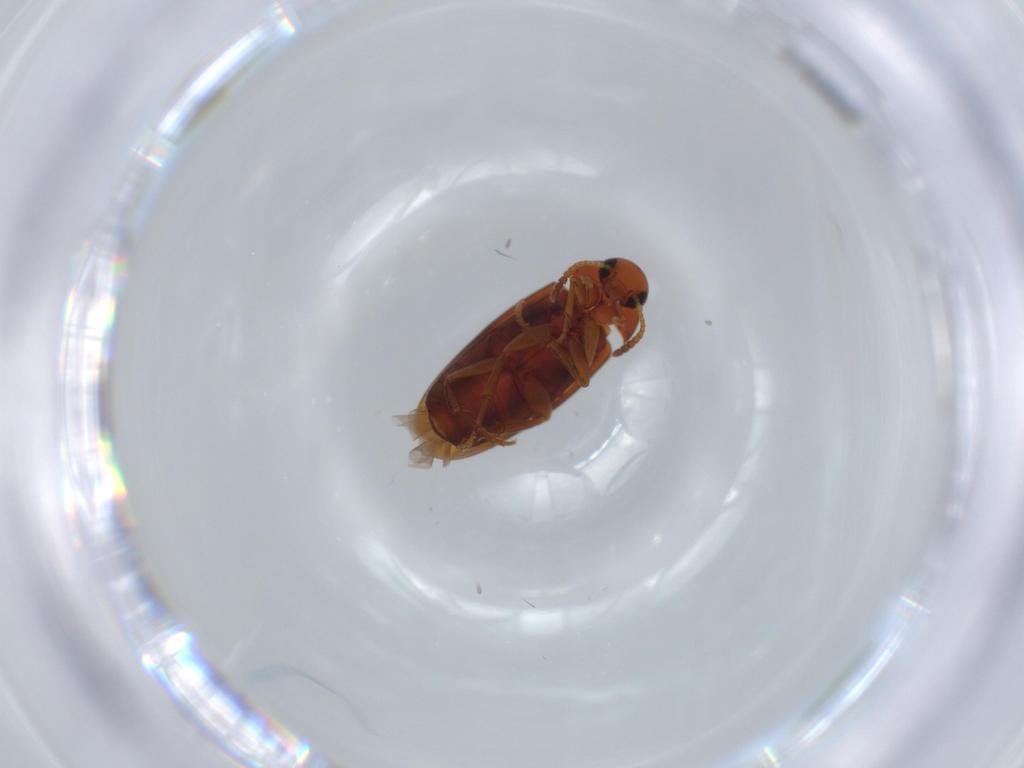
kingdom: Animalia
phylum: Arthropoda
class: Insecta
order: Coleoptera
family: Scraptiidae
